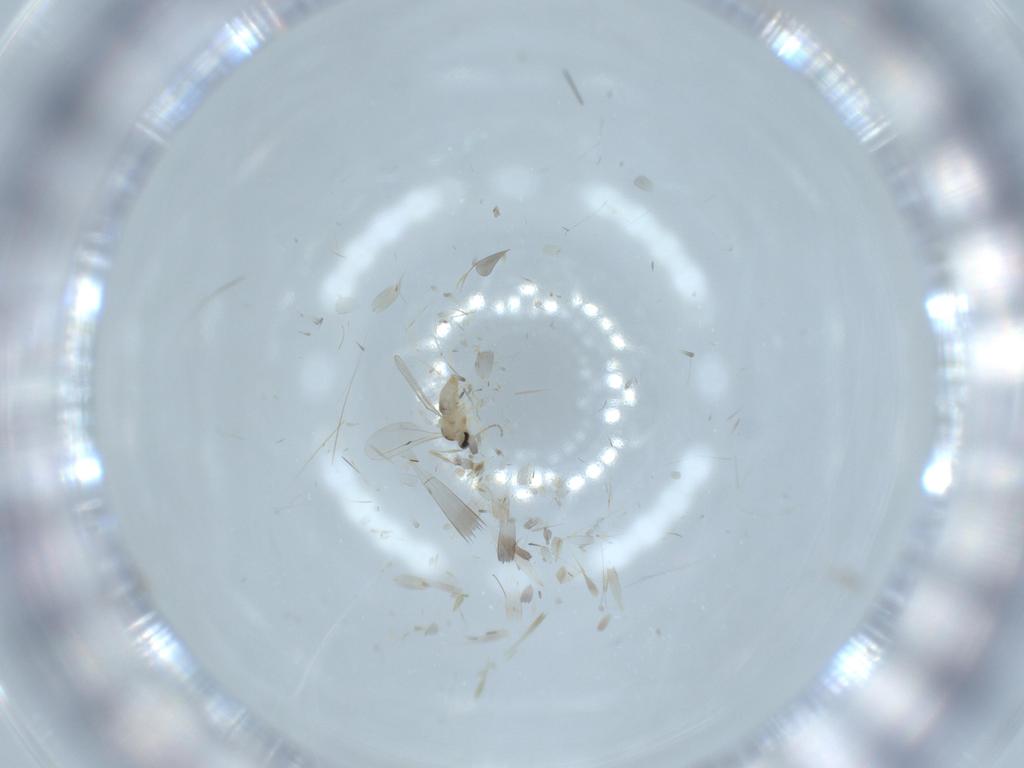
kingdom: Animalia
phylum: Arthropoda
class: Insecta
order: Diptera
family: Cecidomyiidae
